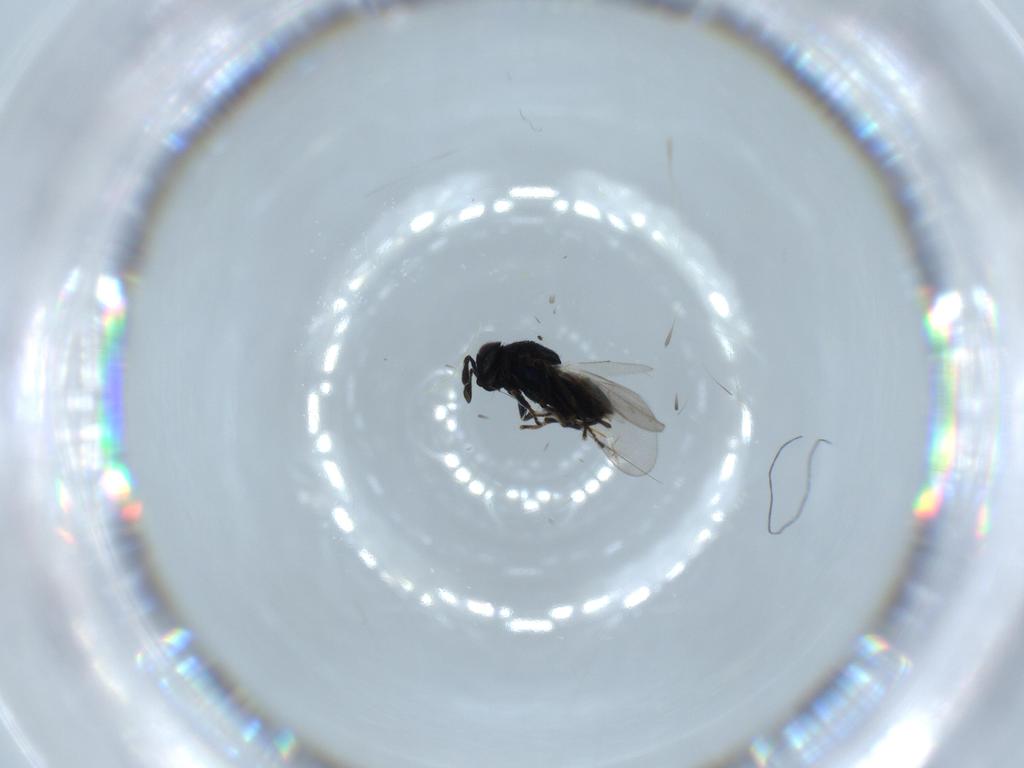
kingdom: Animalia
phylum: Arthropoda
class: Insecta
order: Hymenoptera
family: Encyrtidae
